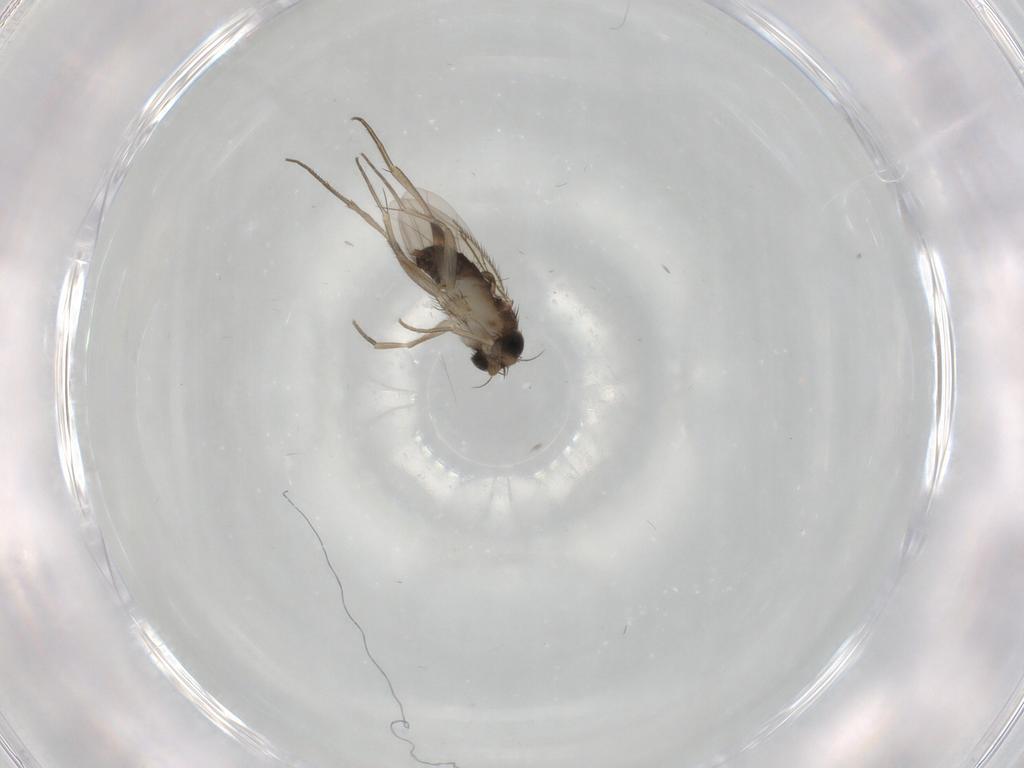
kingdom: Animalia
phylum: Arthropoda
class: Insecta
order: Diptera
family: Phoridae
